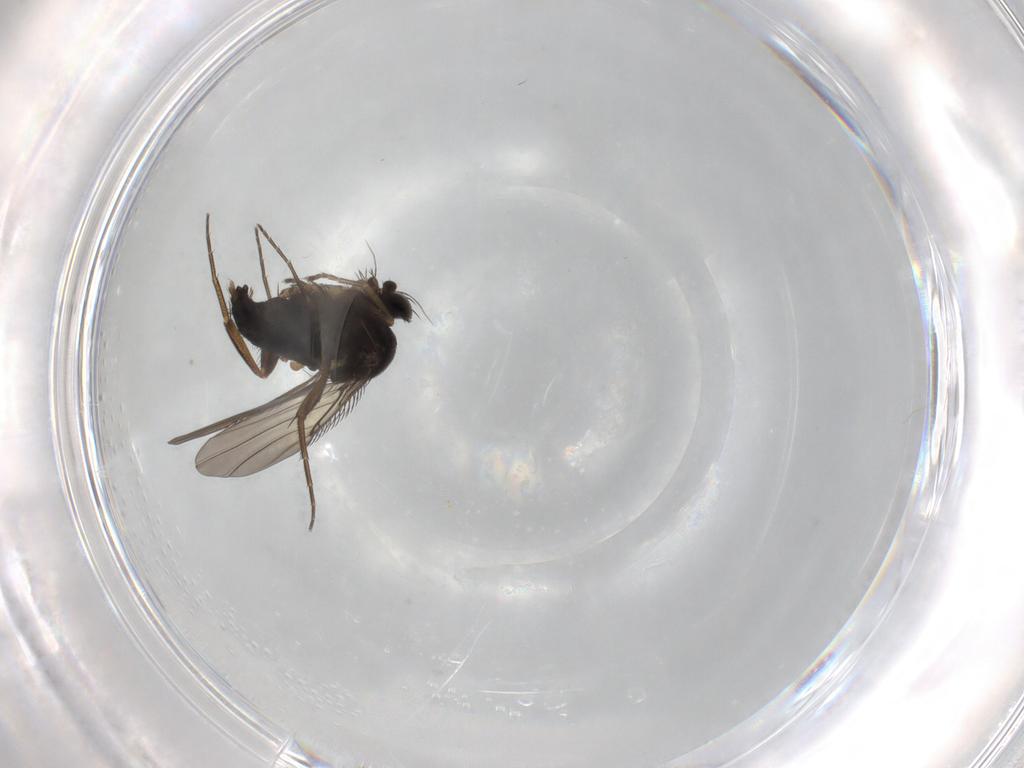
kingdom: Animalia
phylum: Arthropoda
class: Insecta
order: Diptera
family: Phoridae
